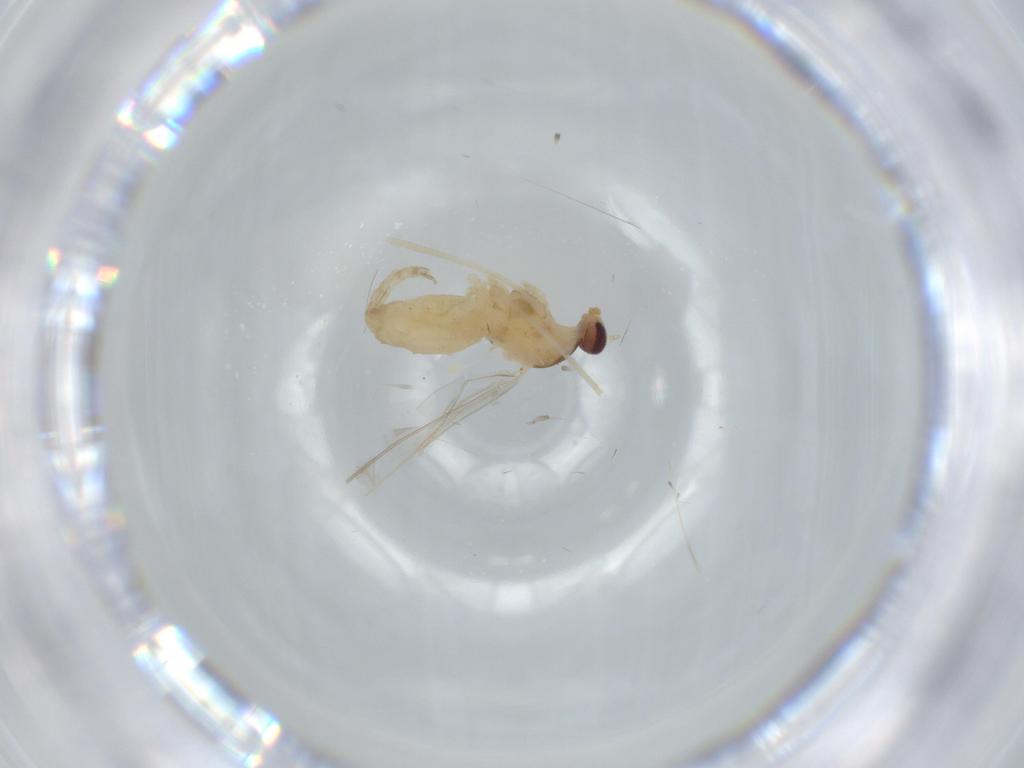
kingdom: Animalia
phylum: Arthropoda
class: Insecta
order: Diptera
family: Cecidomyiidae
